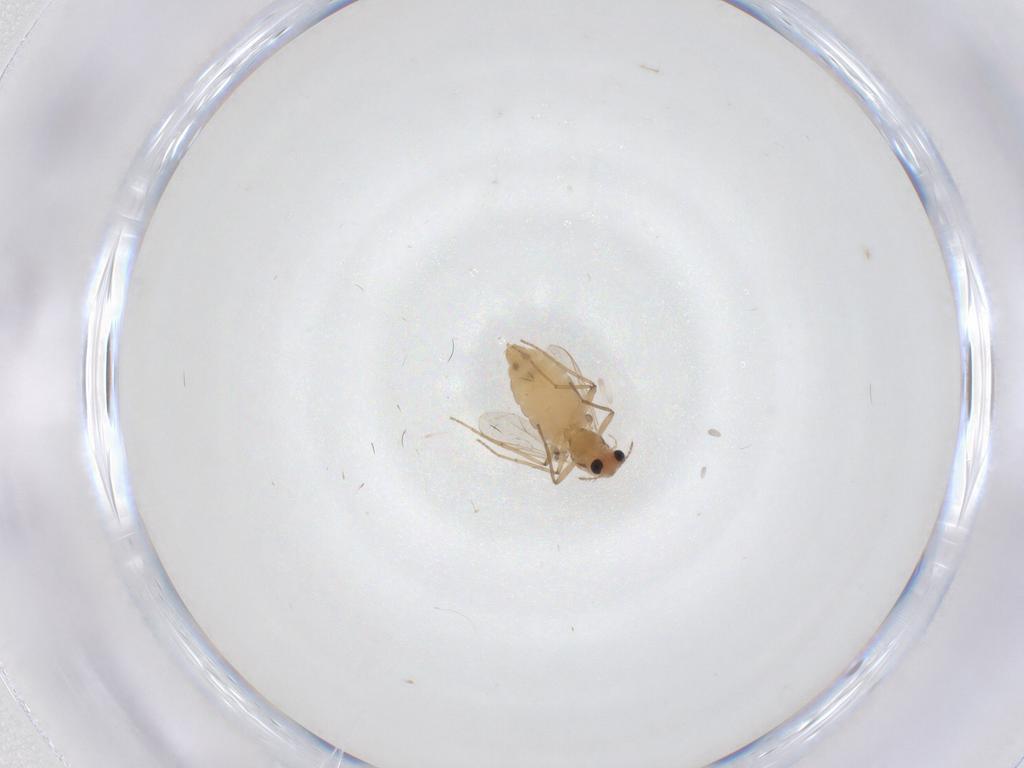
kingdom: Animalia
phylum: Arthropoda
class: Insecta
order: Diptera
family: Chironomidae
